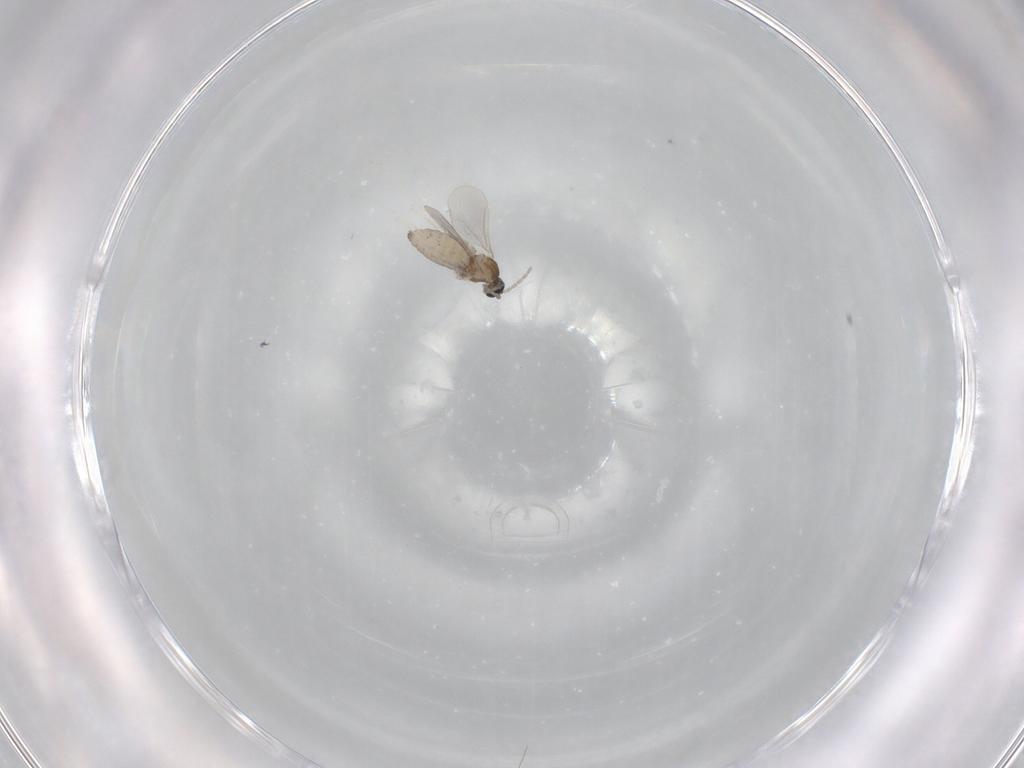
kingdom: Animalia
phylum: Arthropoda
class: Insecta
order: Diptera
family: Cecidomyiidae
